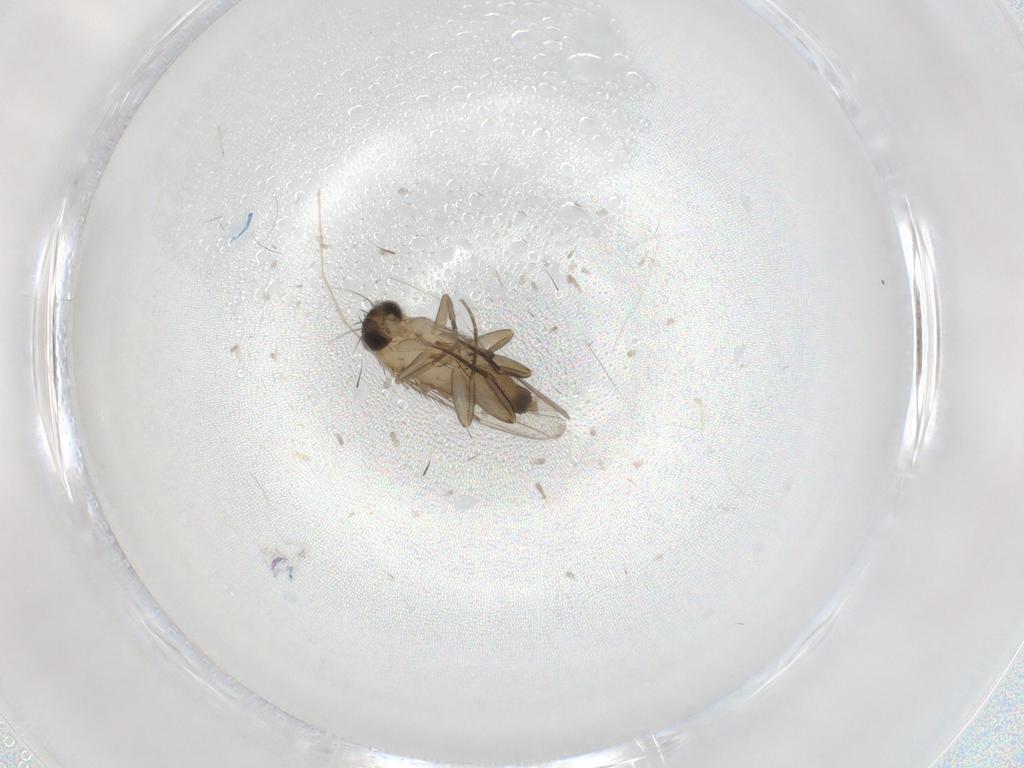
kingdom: Animalia
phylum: Arthropoda
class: Insecta
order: Diptera
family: Phoridae
